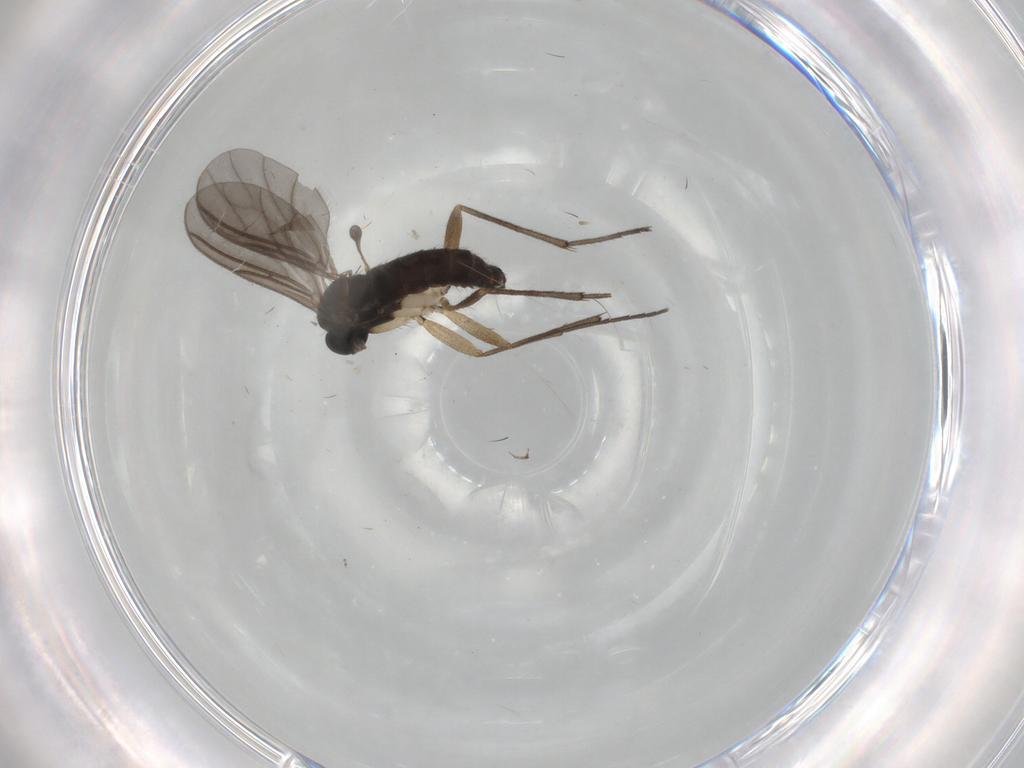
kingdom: Animalia
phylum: Arthropoda
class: Insecta
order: Diptera
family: Sciaridae
